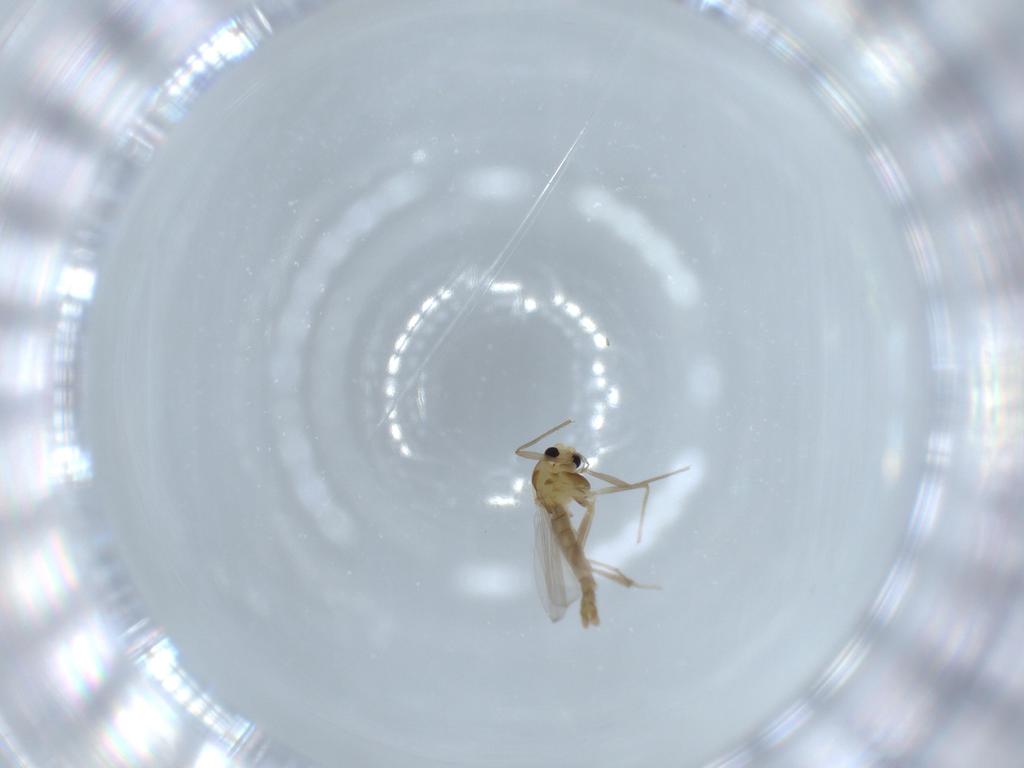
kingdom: Animalia
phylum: Arthropoda
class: Insecta
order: Diptera
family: Chironomidae
